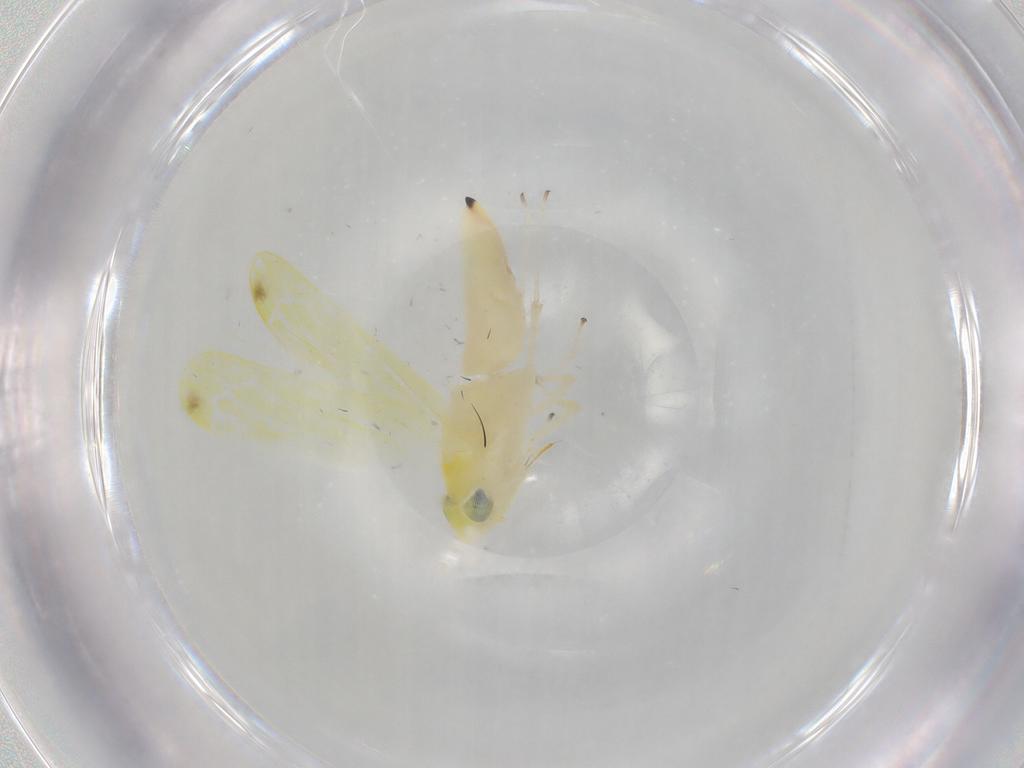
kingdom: Animalia
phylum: Arthropoda
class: Insecta
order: Hemiptera
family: Cicadellidae
